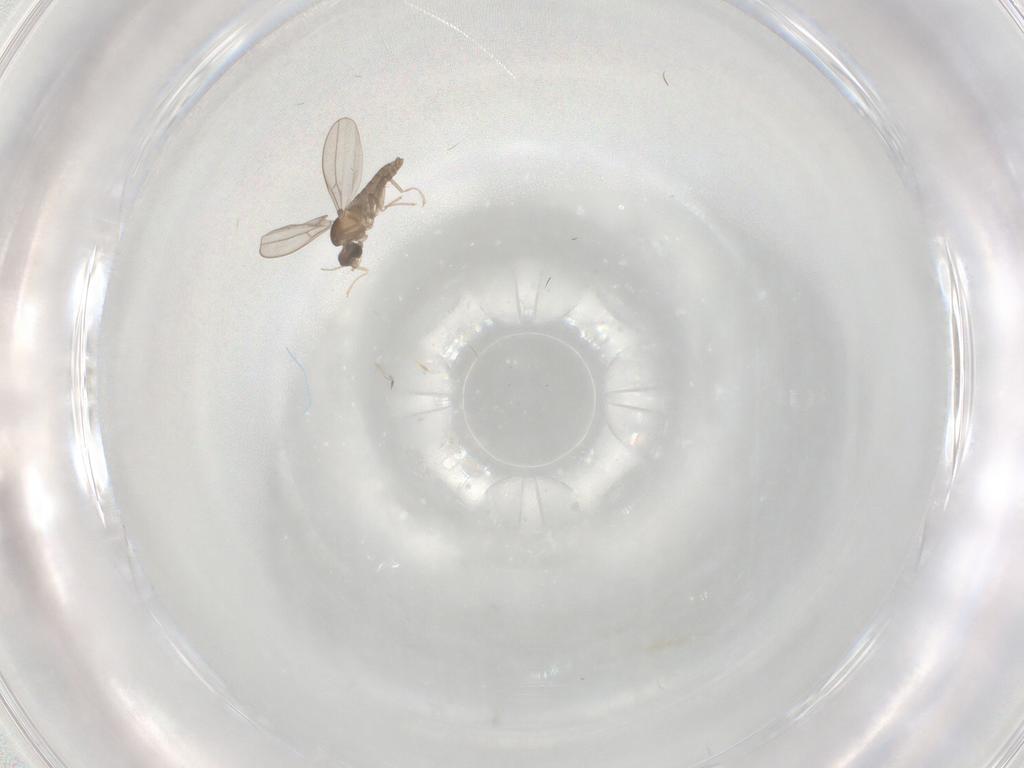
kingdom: Animalia
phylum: Arthropoda
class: Insecta
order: Diptera
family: Cecidomyiidae
